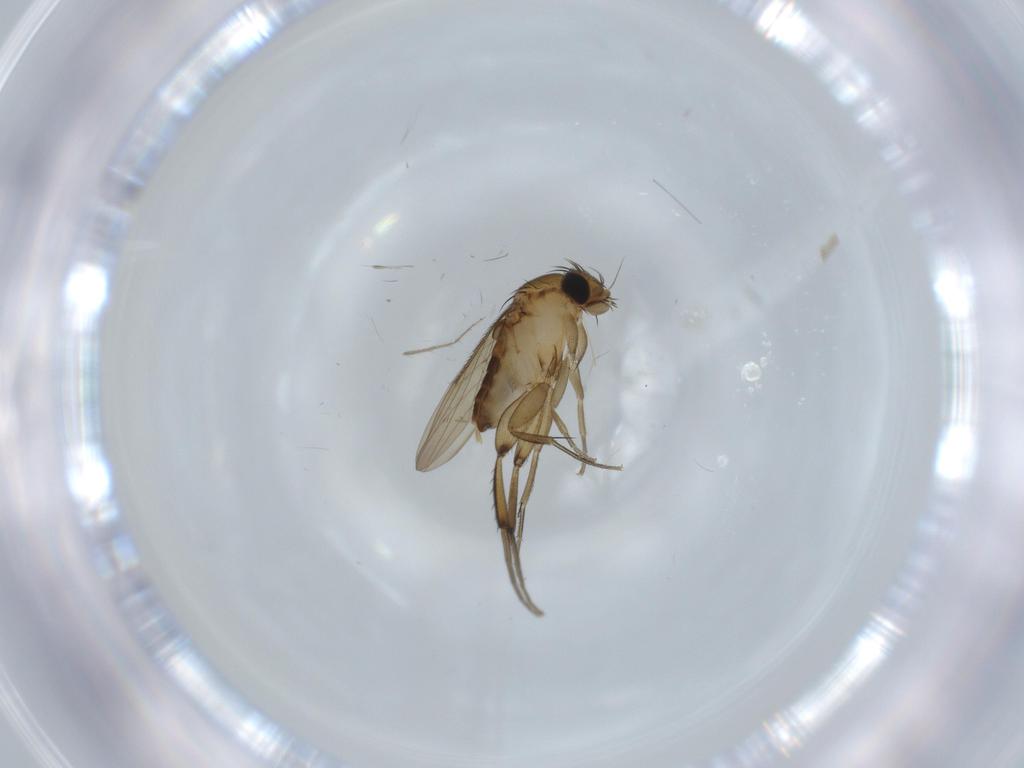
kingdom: Animalia
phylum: Arthropoda
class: Insecta
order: Diptera
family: Phoridae
